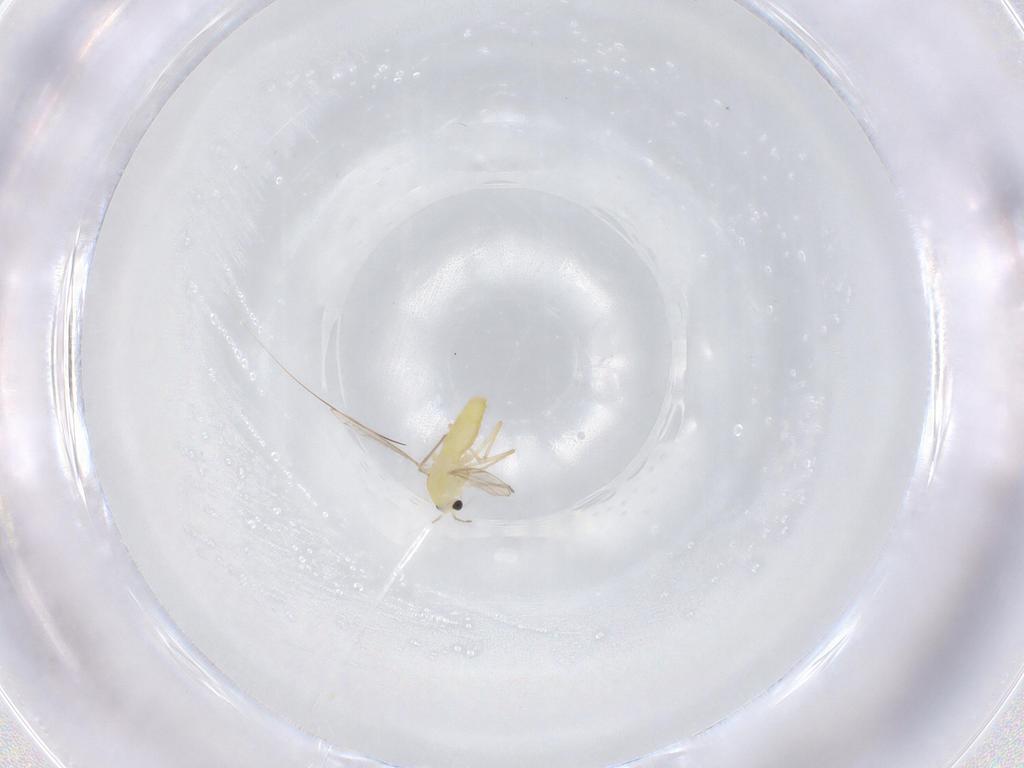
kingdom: Animalia
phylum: Arthropoda
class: Insecta
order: Diptera
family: Chironomidae
